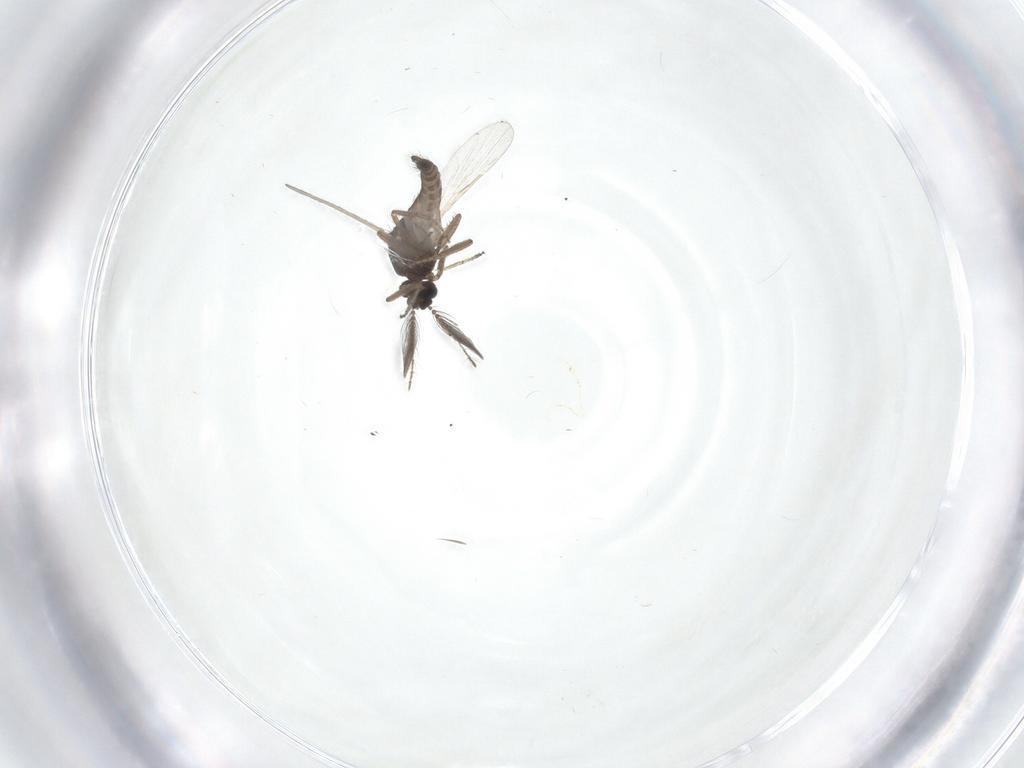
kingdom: Animalia
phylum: Arthropoda
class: Insecta
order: Diptera
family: Ceratopogonidae
